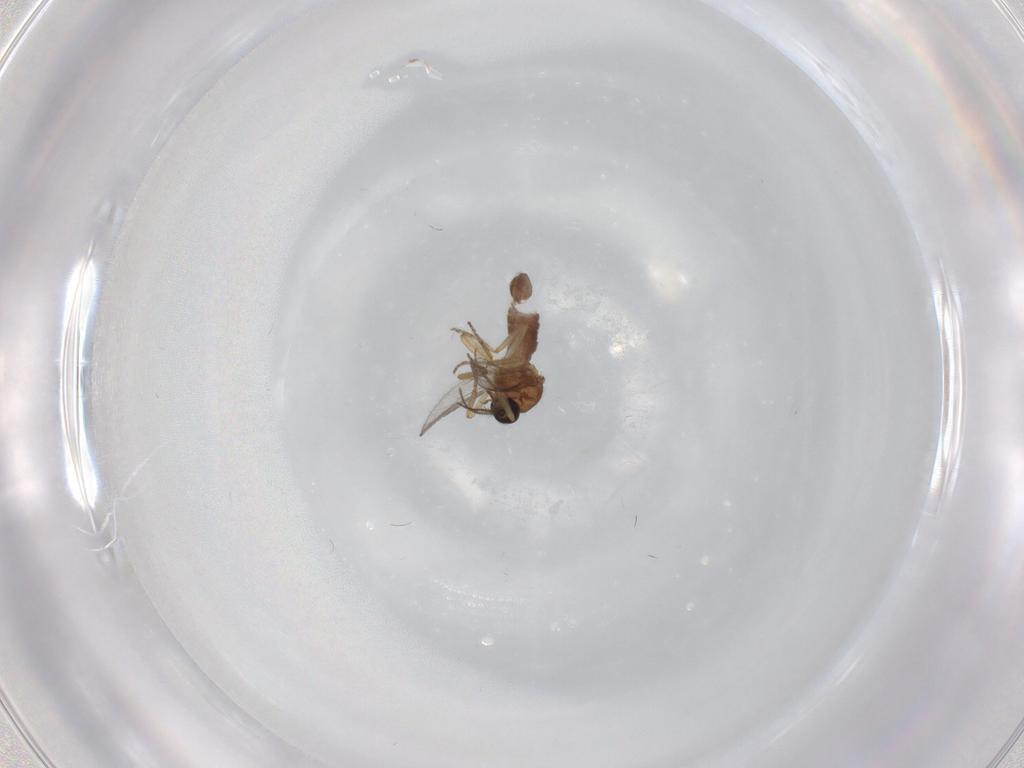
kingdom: Animalia
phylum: Arthropoda
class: Insecta
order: Diptera
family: Ceratopogonidae
